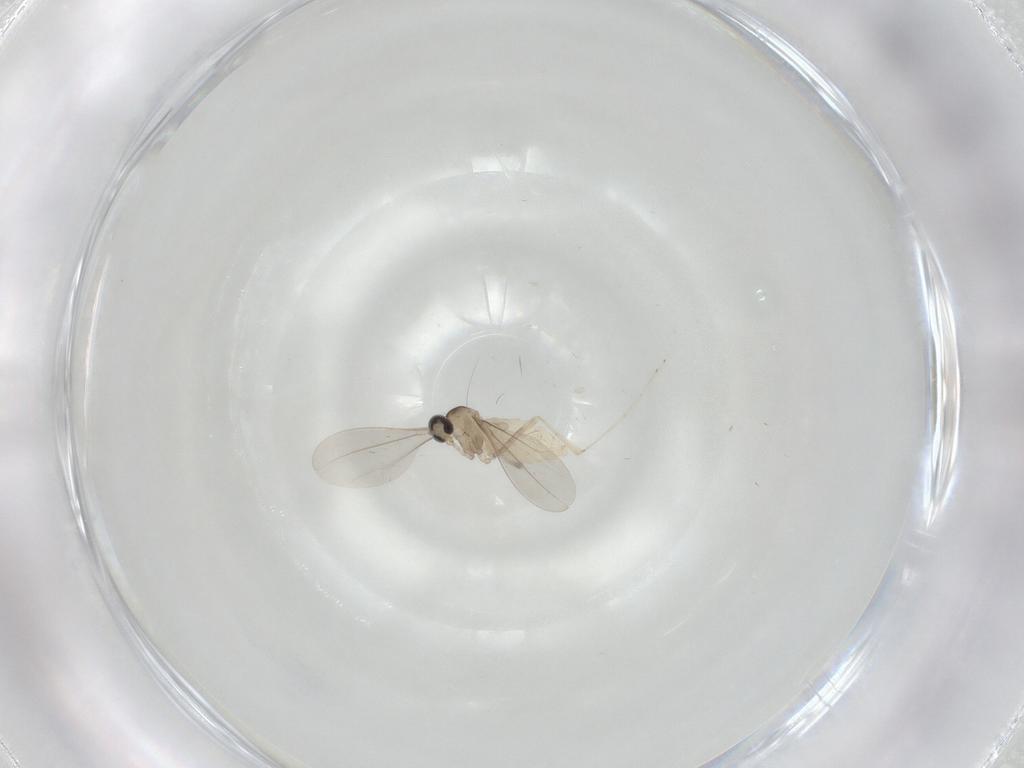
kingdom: Animalia
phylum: Arthropoda
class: Insecta
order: Diptera
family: Cecidomyiidae
